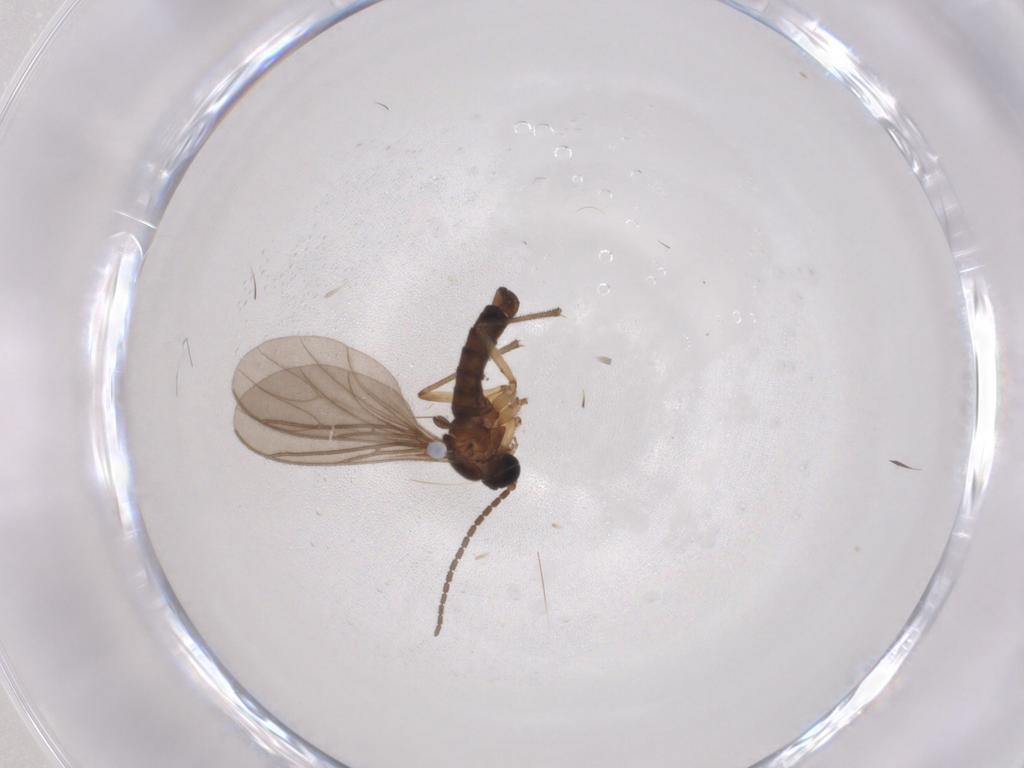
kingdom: Animalia
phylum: Arthropoda
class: Insecta
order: Diptera
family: Sciaridae
